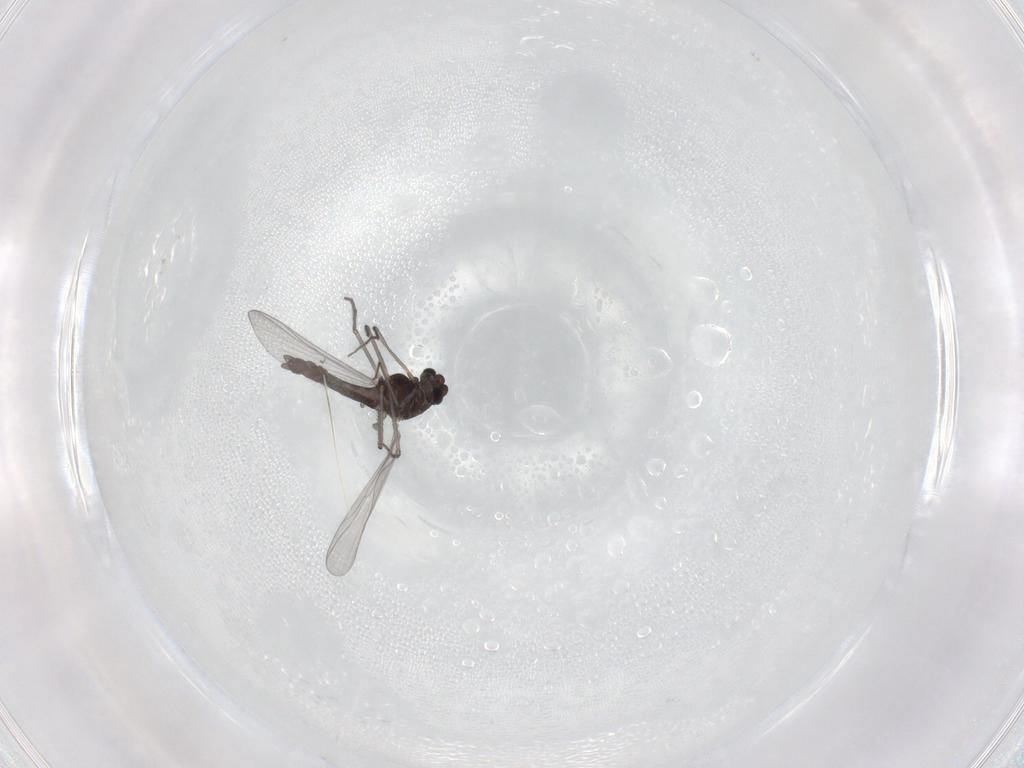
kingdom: Animalia
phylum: Arthropoda
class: Insecta
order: Diptera
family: Chironomidae
